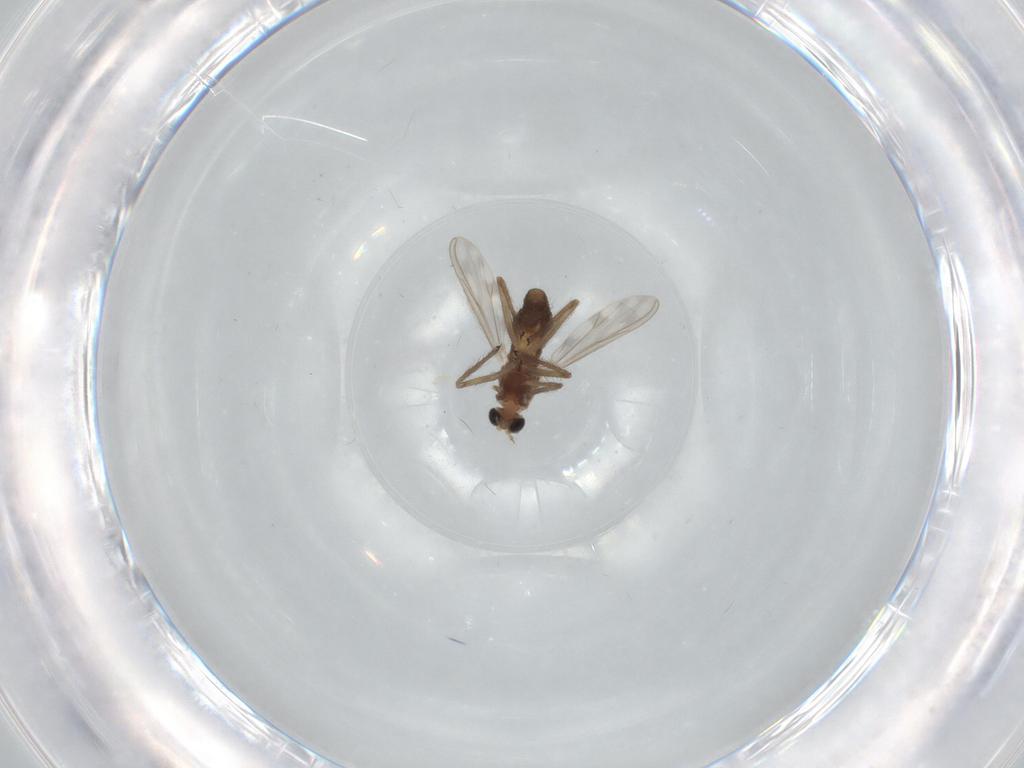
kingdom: Animalia
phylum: Arthropoda
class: Insecta
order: Diptera
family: Chironomidae
